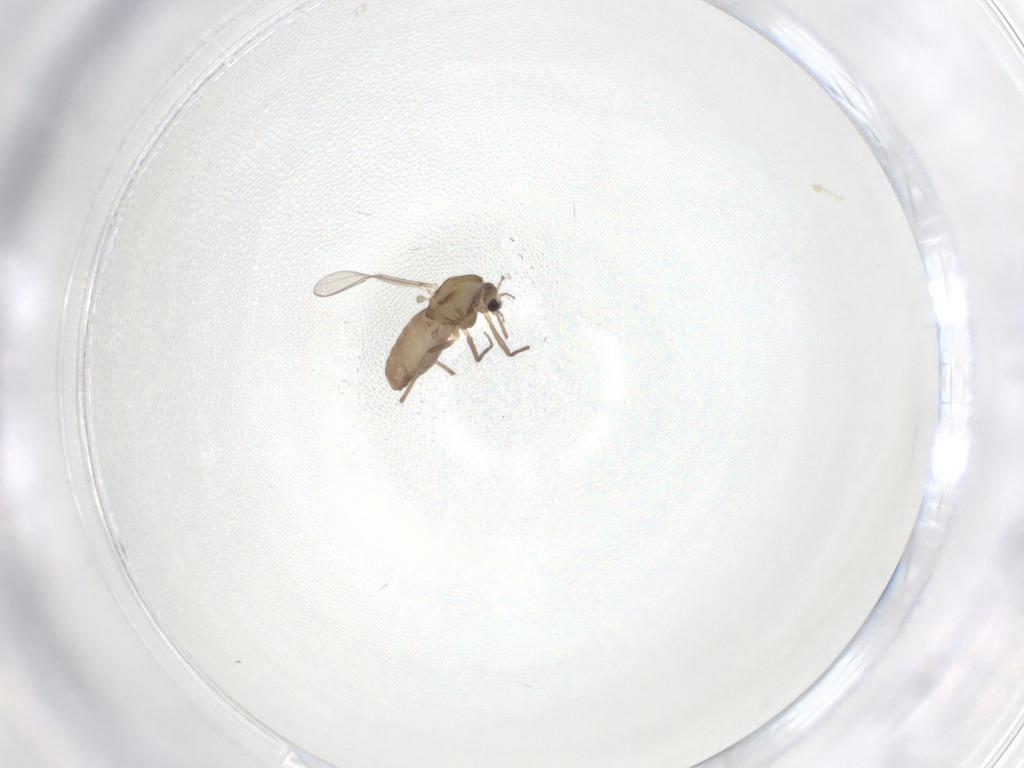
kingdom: Animalia
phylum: Arthropoda
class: Insecta
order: Diptera
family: Chironomidae
